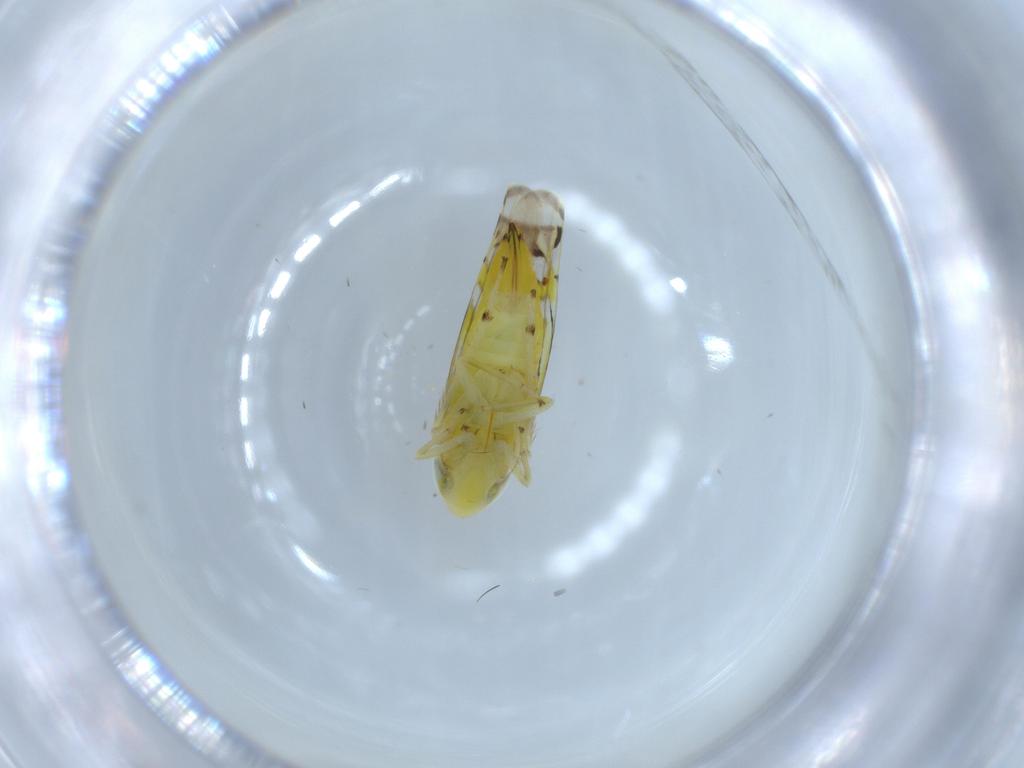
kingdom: Animalia
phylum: Arthropoda
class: Insecta
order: Hemiptera
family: Cicadellidae
